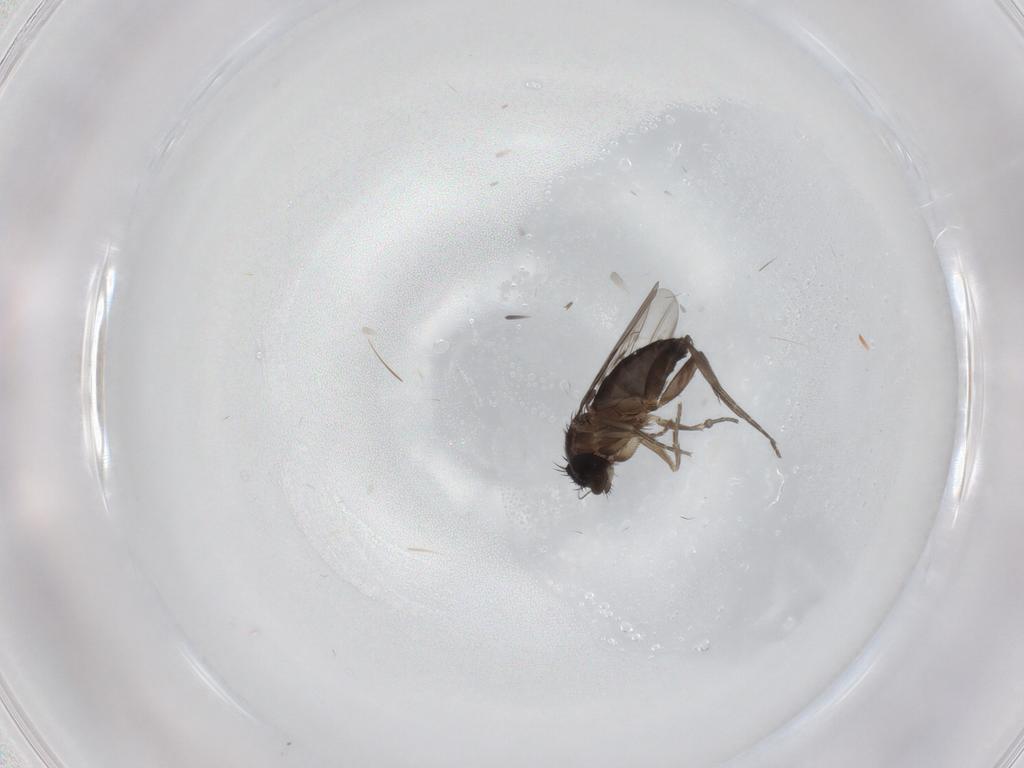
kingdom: Animalia
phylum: Arthropoda
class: Insecta
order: Diptera
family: Phoridae
